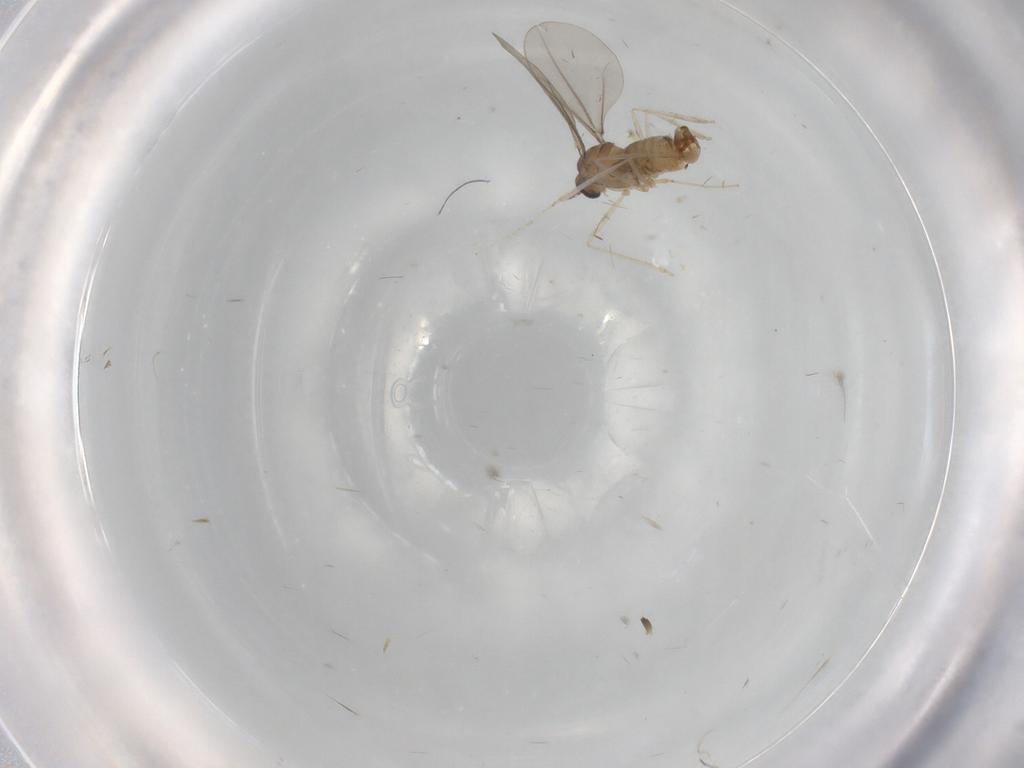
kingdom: Animalia
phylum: Arthropoda
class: Insecta
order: Diptera
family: Cecidomyiidae
